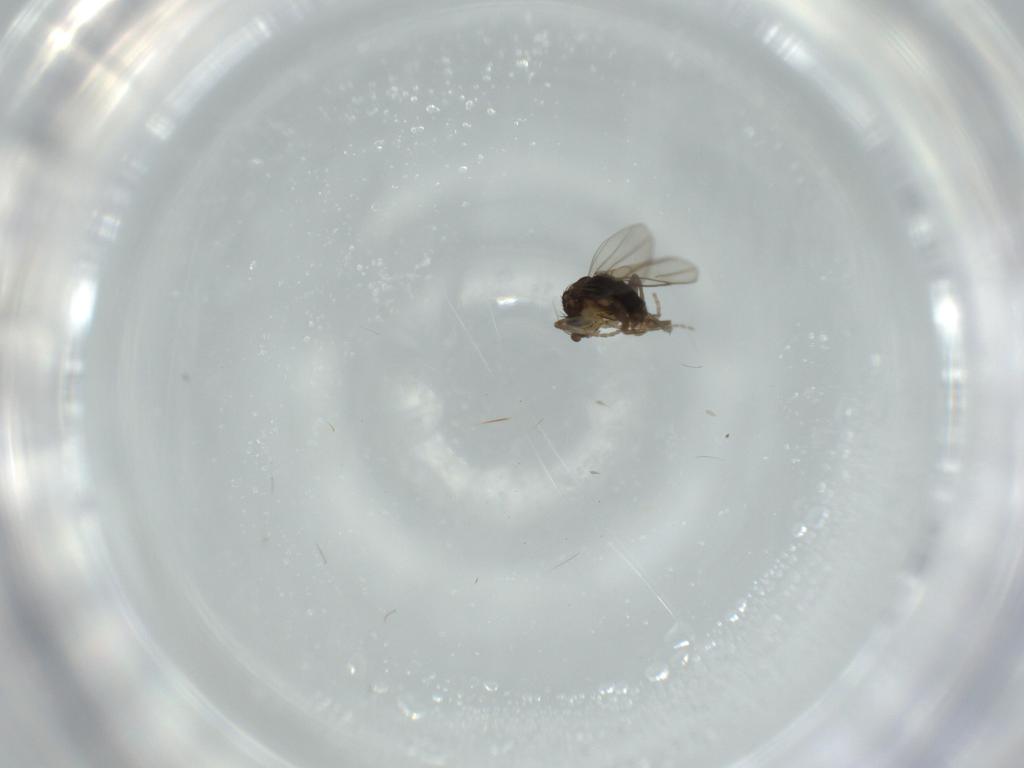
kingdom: Animalia
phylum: Arthropoda
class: Insecta
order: Diptera
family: Phoridae
